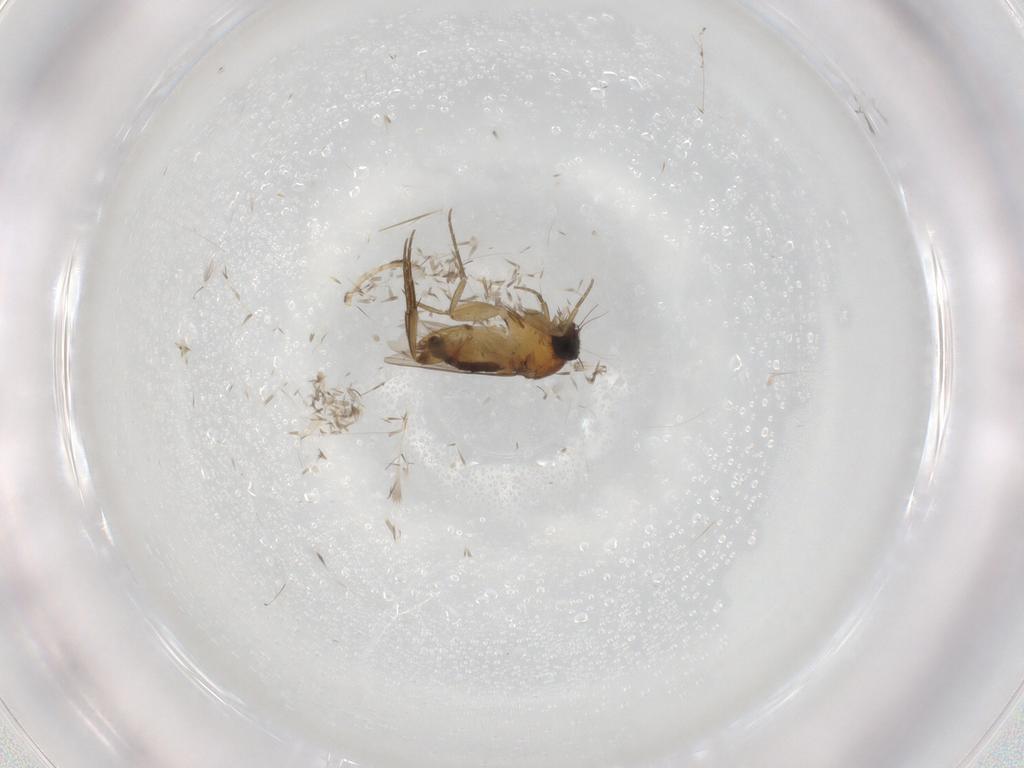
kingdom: Animalia
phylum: Arthropoda
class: Insecta
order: Diptera
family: Phoridae
